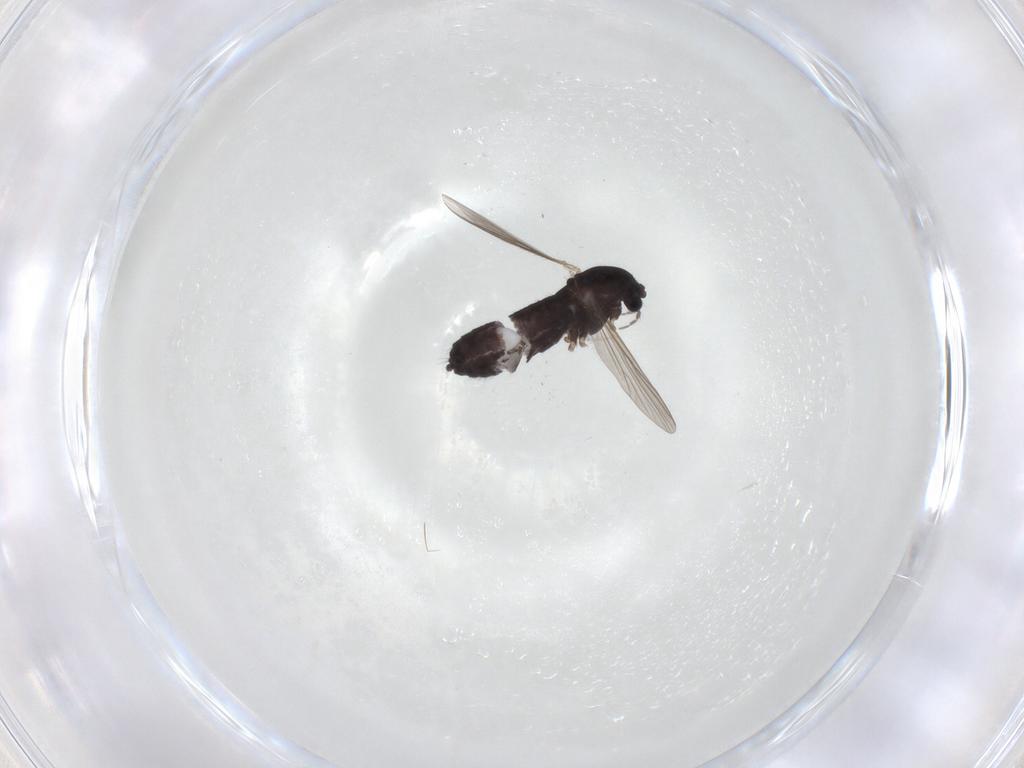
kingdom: Animalia
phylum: Arthropoda
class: Insecta
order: Diptera
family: Chironomidae
